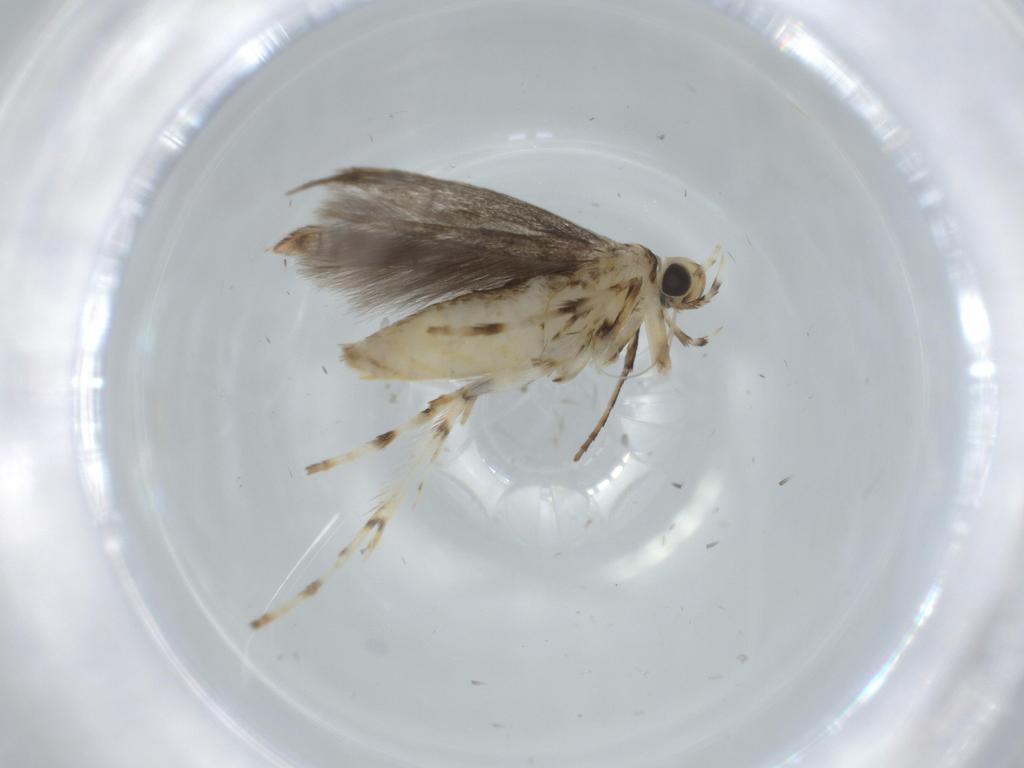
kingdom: Animalia
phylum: Arthropoda
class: Insecta
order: Lepidoptera
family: Gracillariidae
